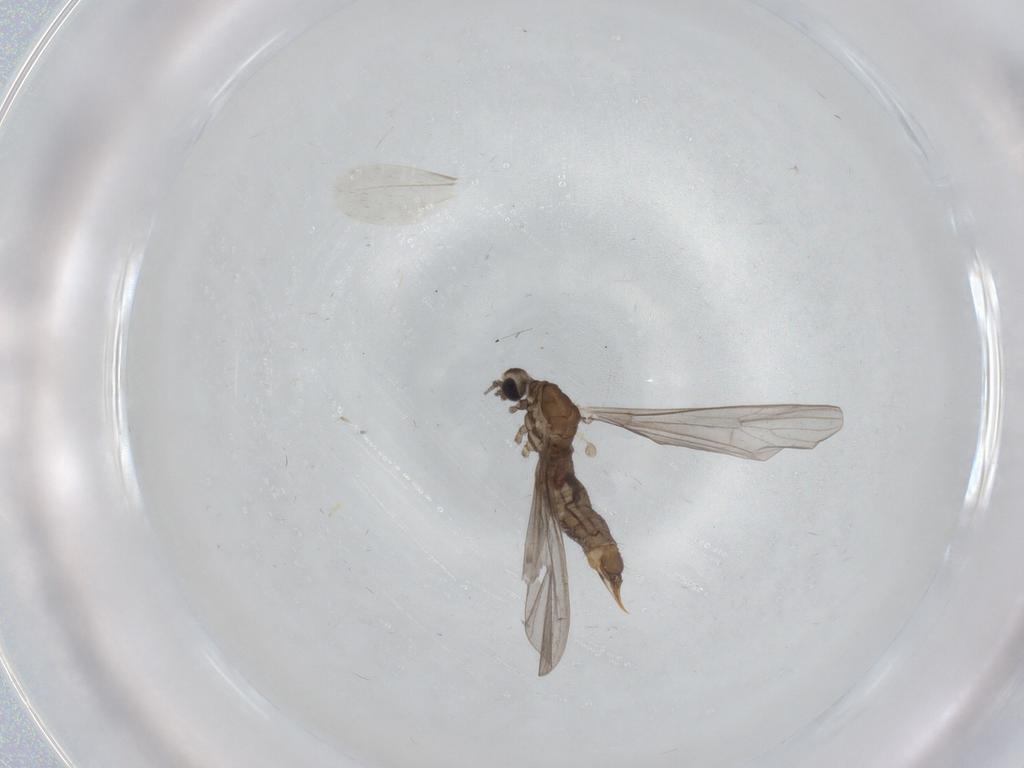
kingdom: Animalia
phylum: Arthropoda
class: Insecta
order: Diptera
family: Limoniidae
